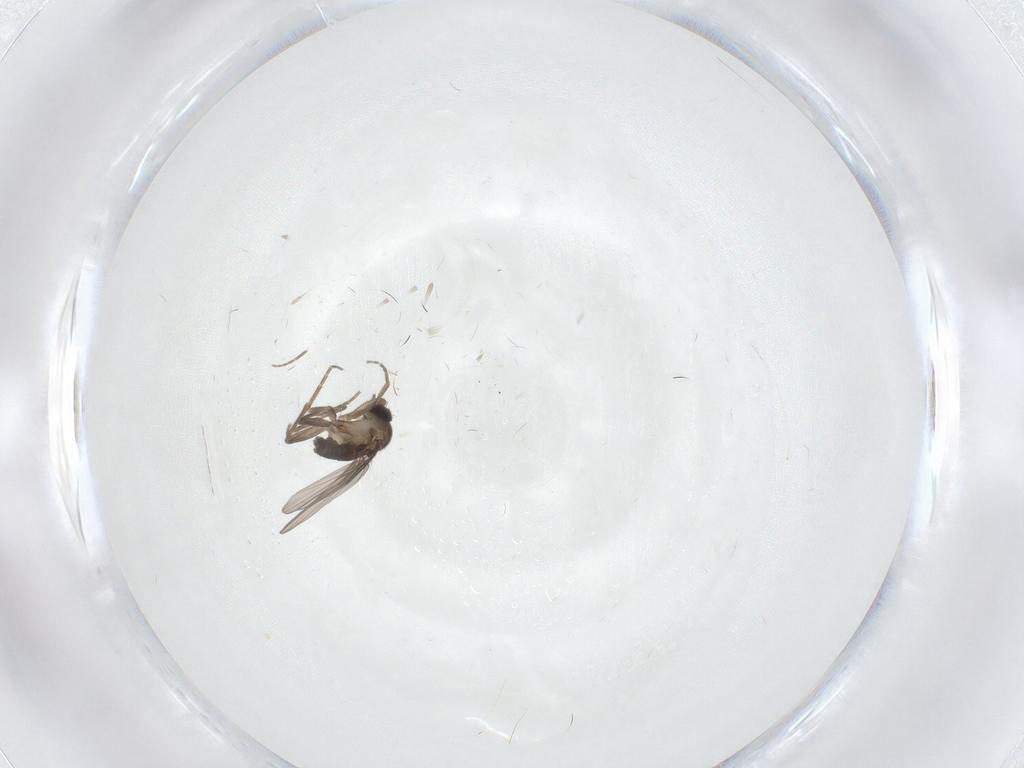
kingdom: Animalia
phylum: Arthropoda
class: Insecta
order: Diptera
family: Phoridae
